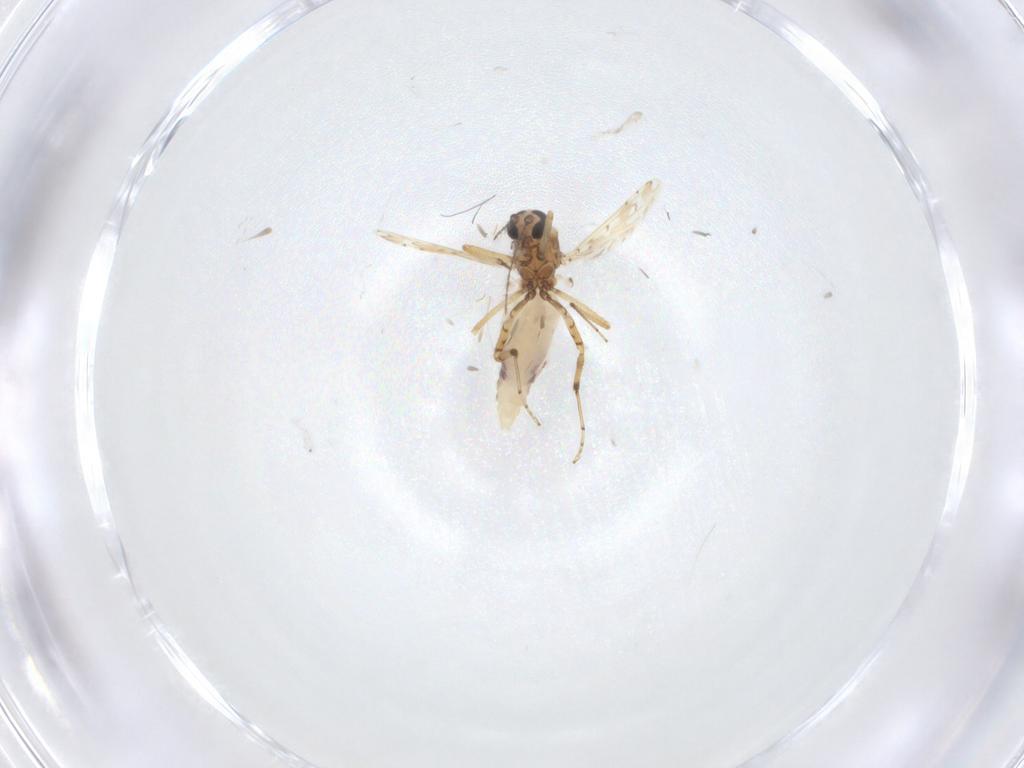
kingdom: Animalia
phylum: Arthropoda
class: Insecta
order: Diptera
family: Ceratopogonidae
